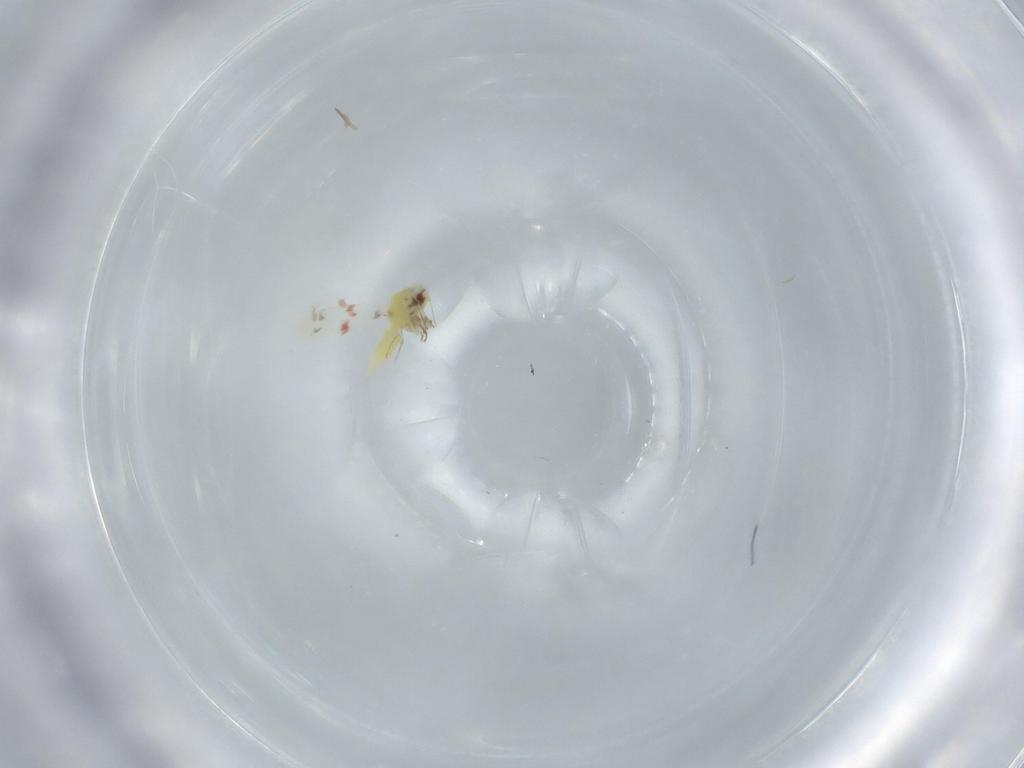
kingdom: Animalia
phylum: Arthropoda
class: Insecta
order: Hemiptera
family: Aleyrodidae
